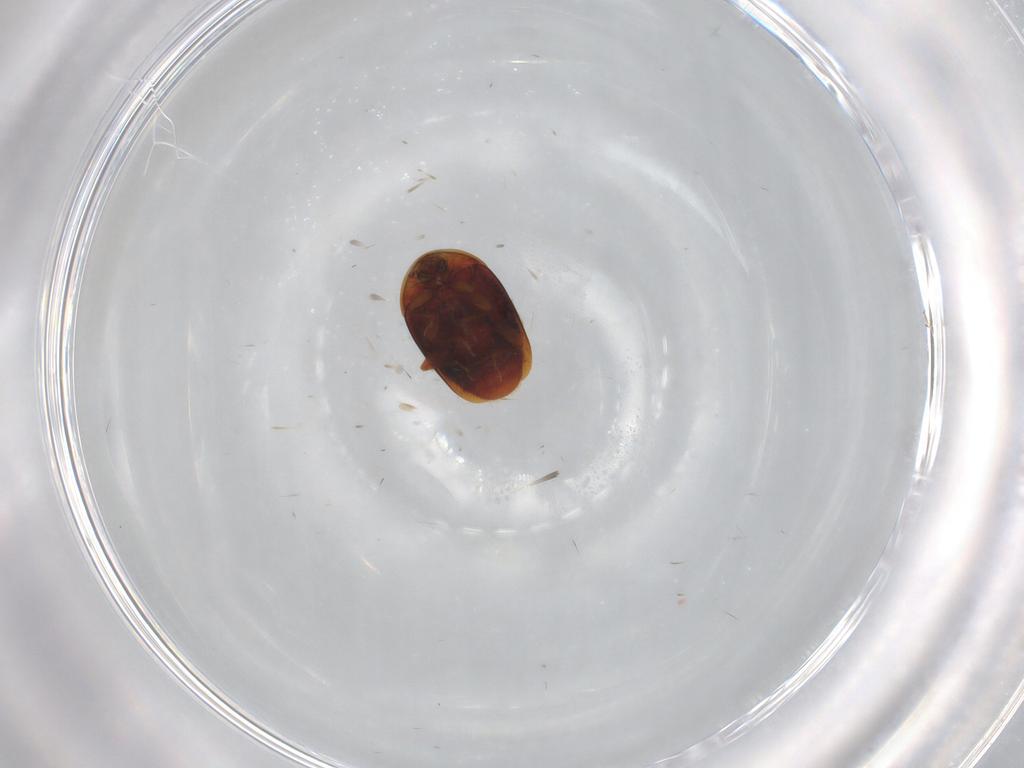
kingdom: Animalia
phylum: Arthropoda
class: Insecta
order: Coleoptera
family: Corylophidae
